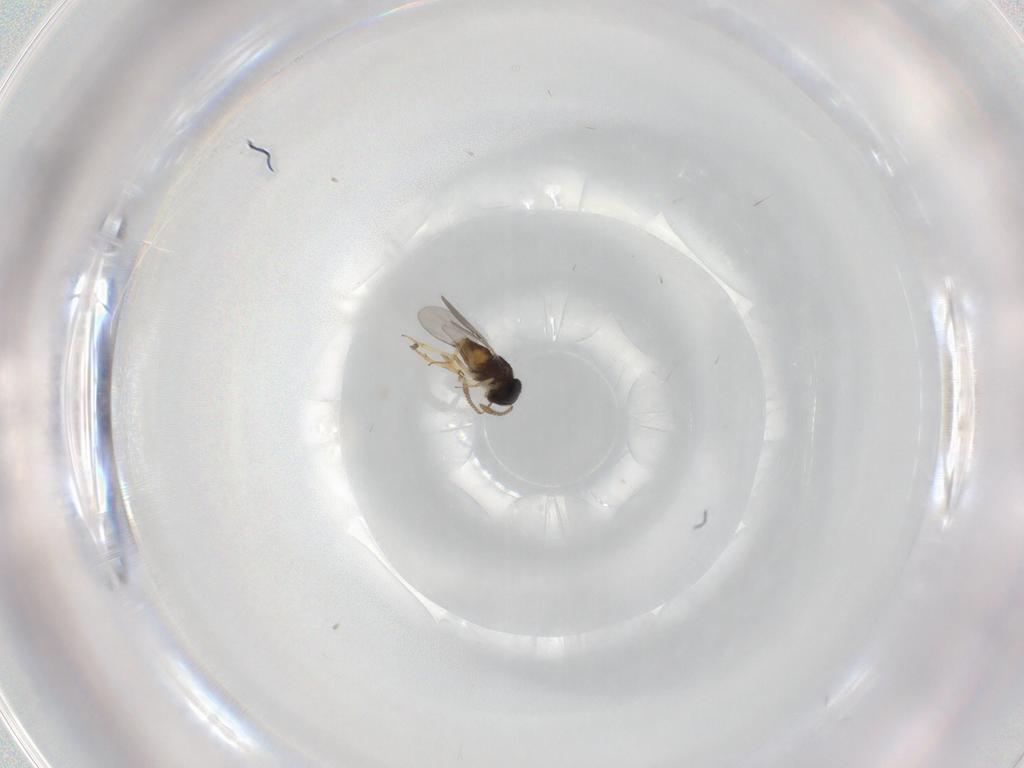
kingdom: Animalia
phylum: Arthropoda
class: Insecta
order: Hymenoptera
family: Encyrtidae
